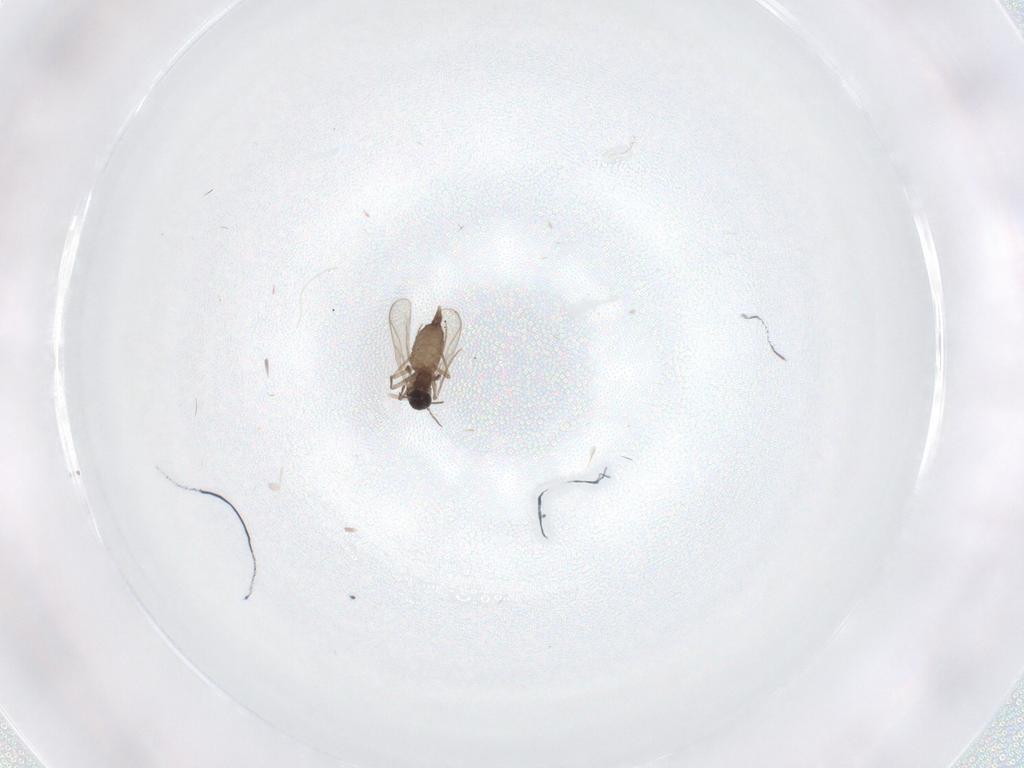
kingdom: Animalia
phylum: Arthropoda
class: Insecta
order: Diptera
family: Chironomidae
